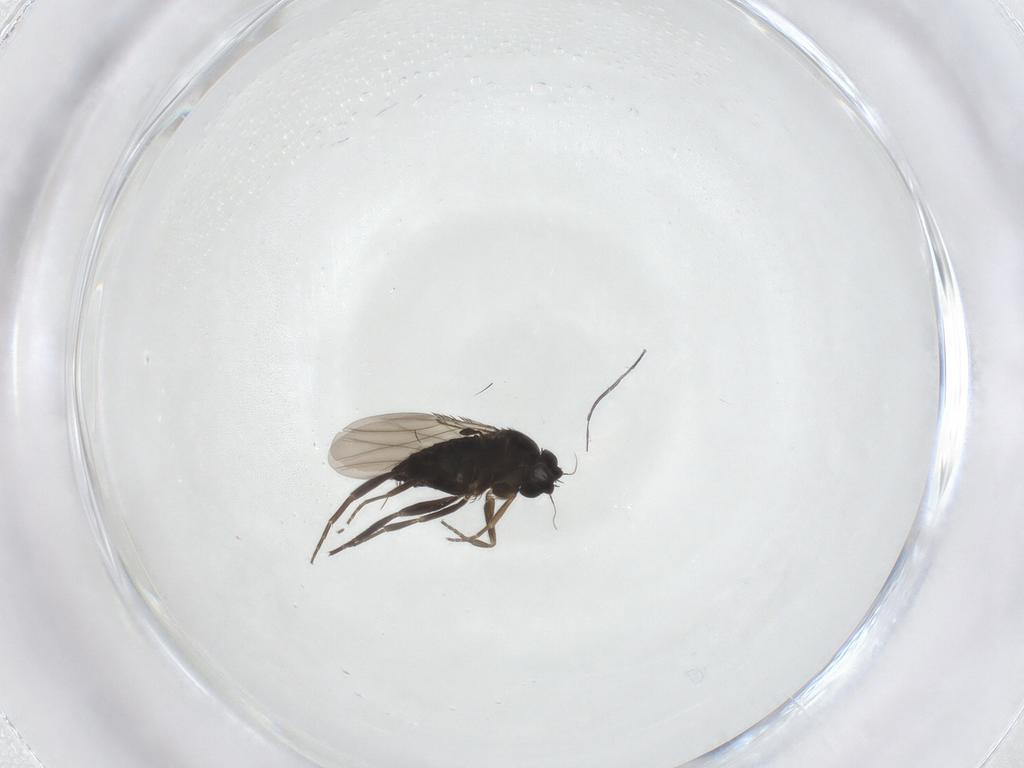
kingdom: Animalia
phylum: Arthropoda
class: Insecta
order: Diptera
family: Phoridae
